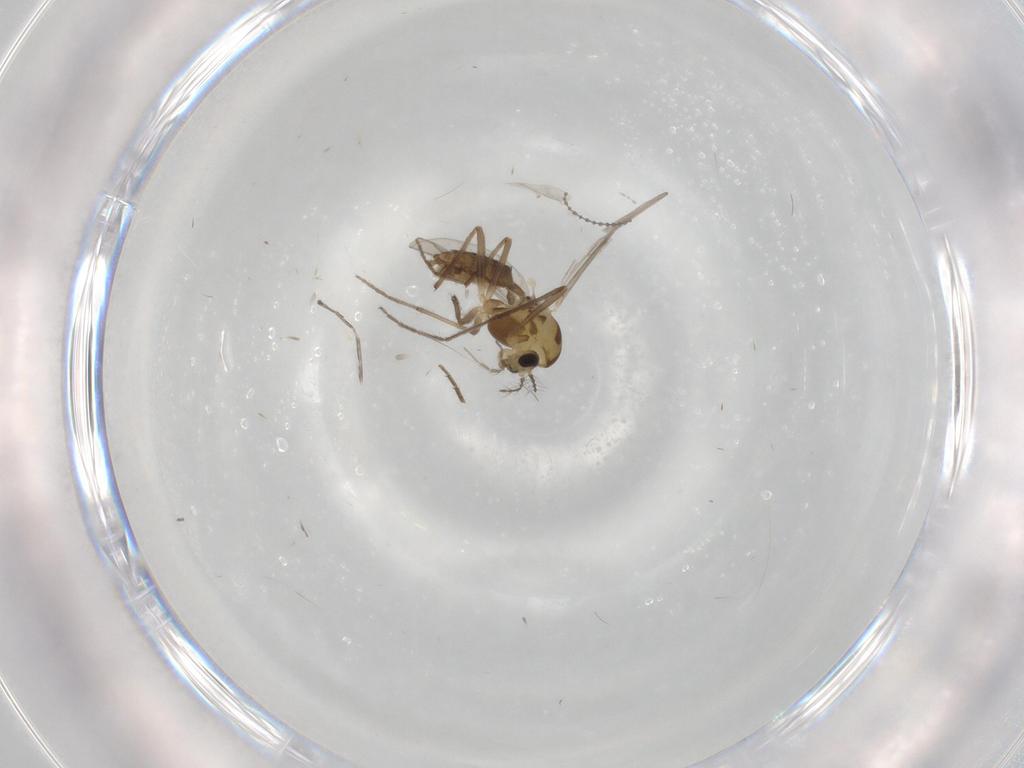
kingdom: Animalia
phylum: Arthropoda
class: Insecta
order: Diptera
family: Chironomidae
